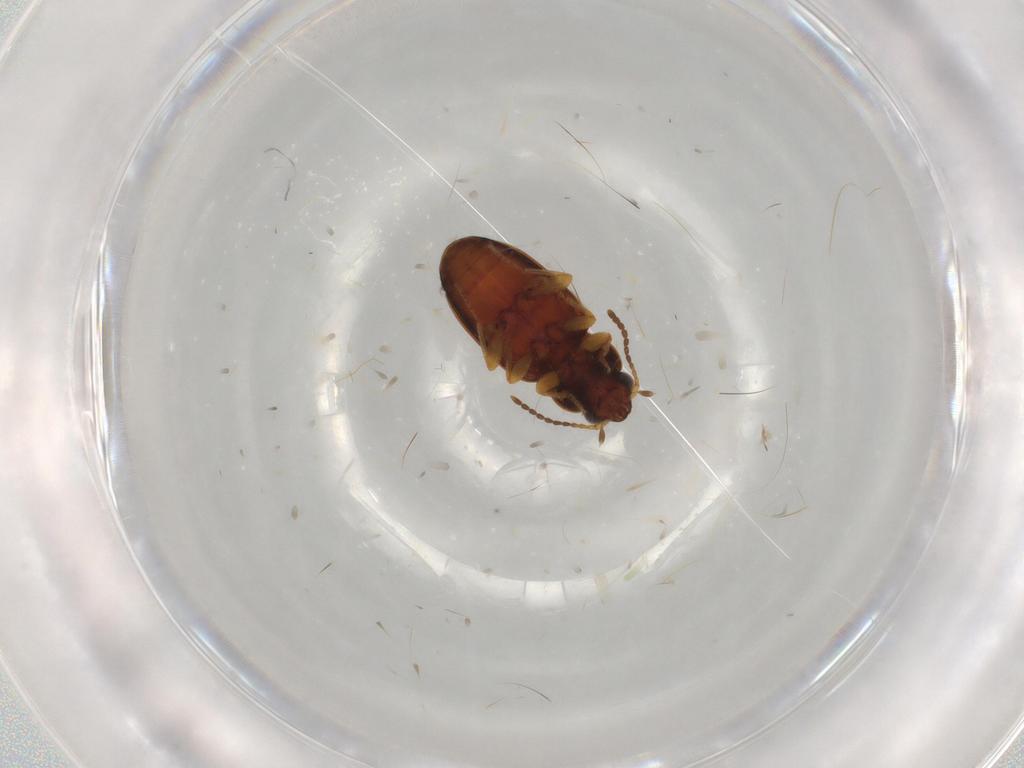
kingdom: Animalia
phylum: Arthropoda
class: Insecta
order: Coleoptera
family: Carabidae
